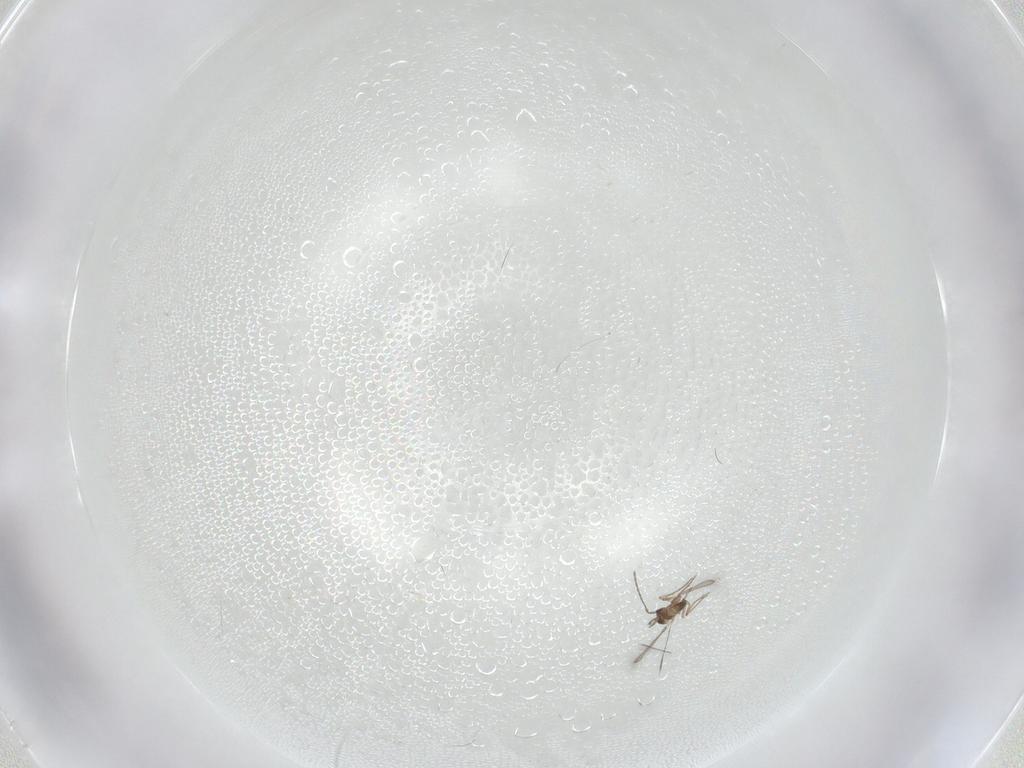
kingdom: Animalia
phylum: Arthropoda
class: Insecta
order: Hymenoptera
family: Mymaridae
